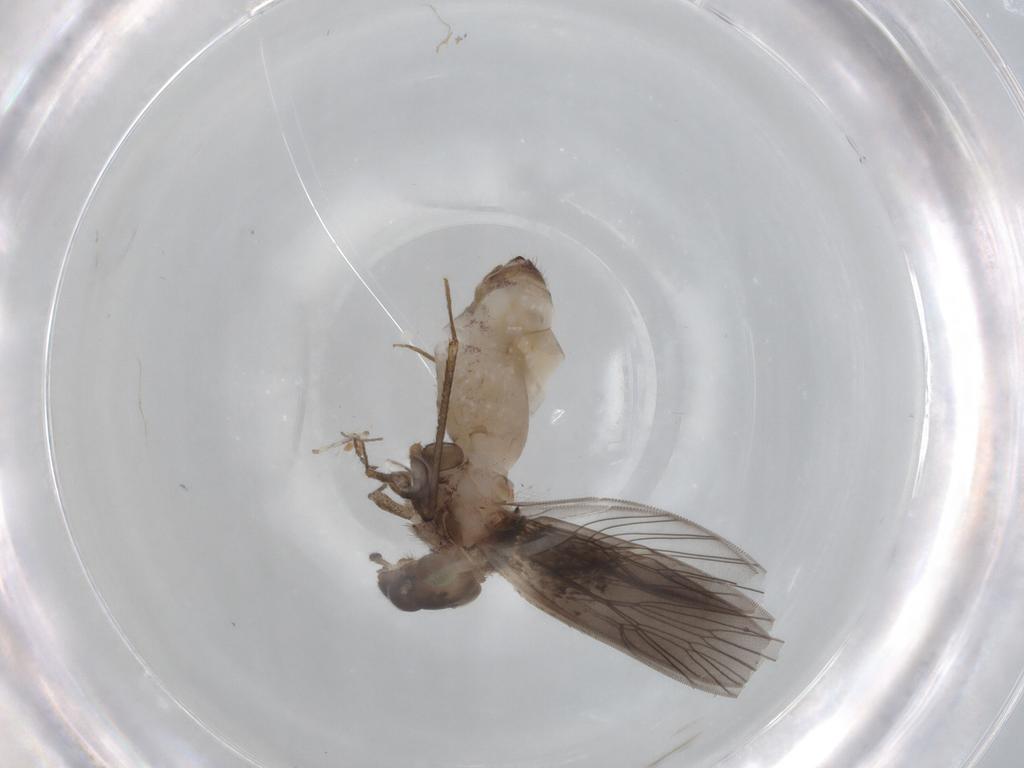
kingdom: Animalia
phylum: Arthropoda
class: Insecta
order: Psocodea
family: Lepidopsocidae
